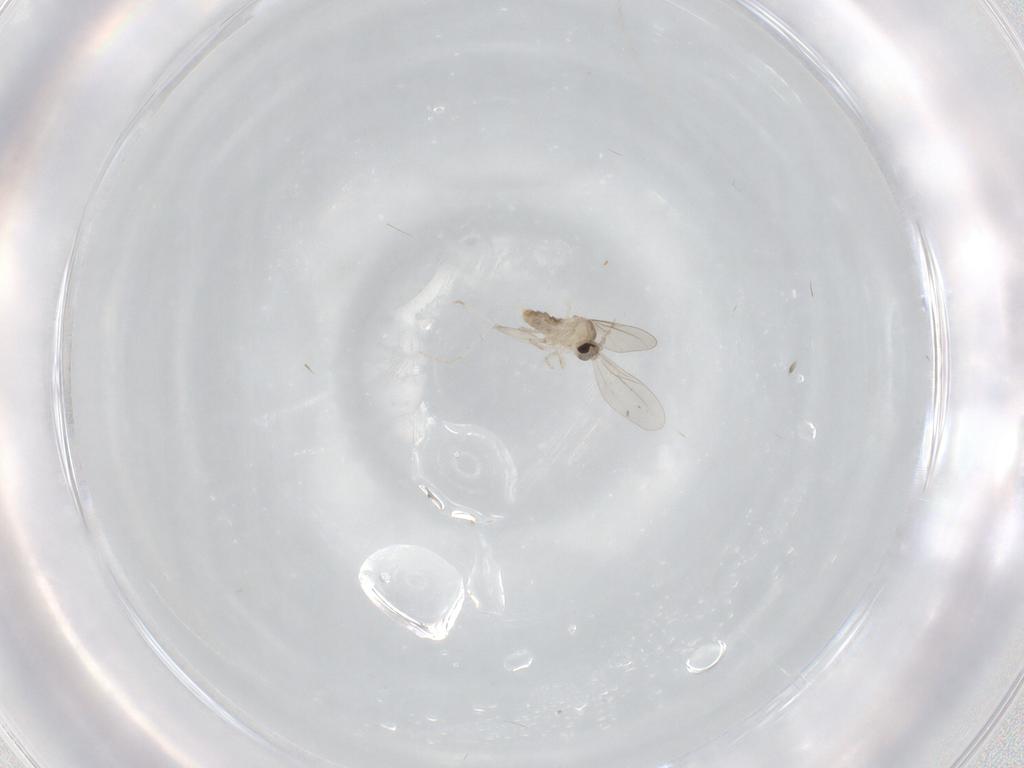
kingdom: Animalia
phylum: Arthropoda
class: Insecta
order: Diptera
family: Cecidomyiidae
